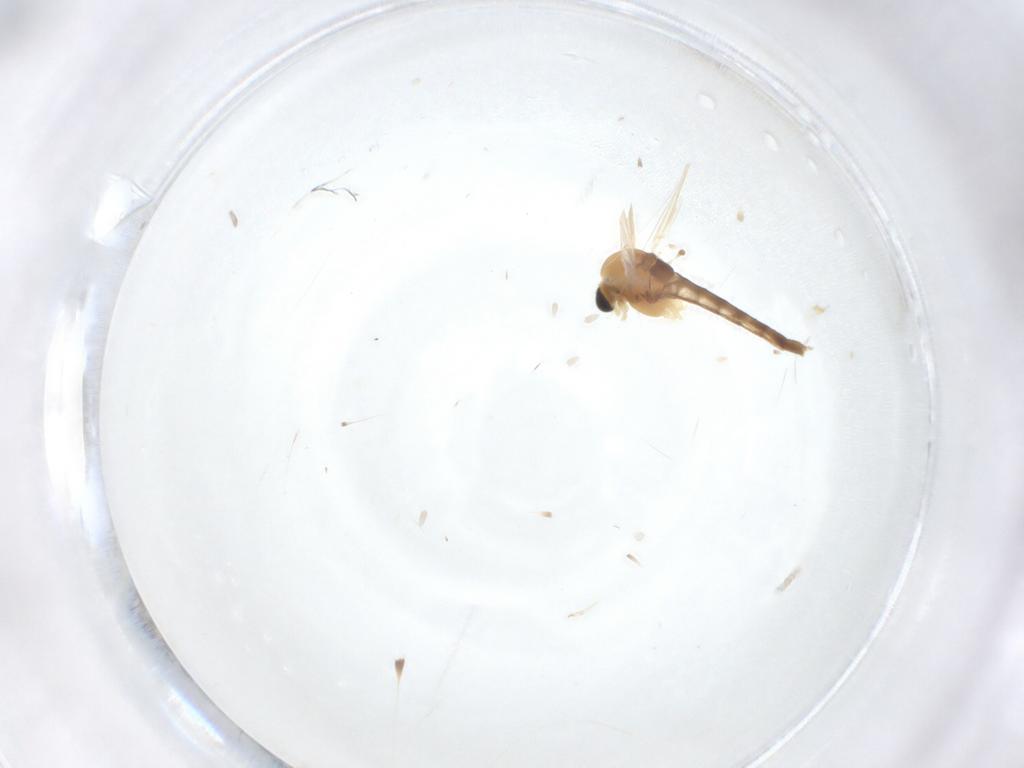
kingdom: Animalia
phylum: Arthropoda
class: Insecta
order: Diptera
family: Chironomidae
